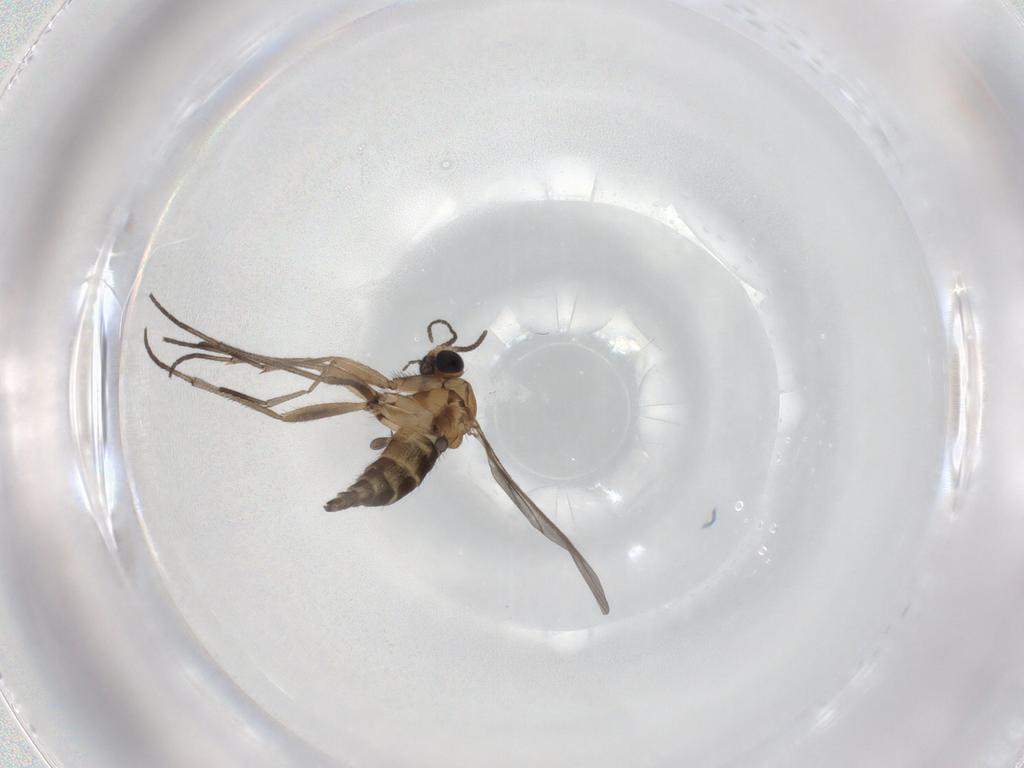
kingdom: Animalia
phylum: Arthropoda
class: Insecta
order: Diptera
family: Sciaridae
